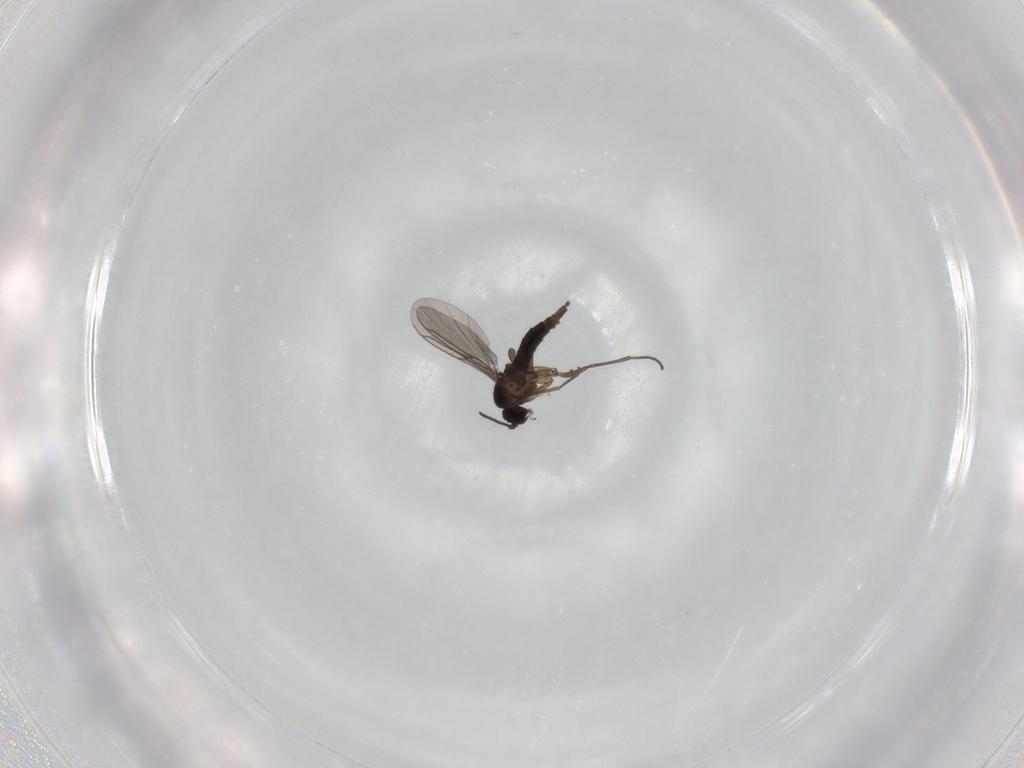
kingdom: Animalia
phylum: Arthropoda
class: Insecta
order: Diptera
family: Sciaridae
